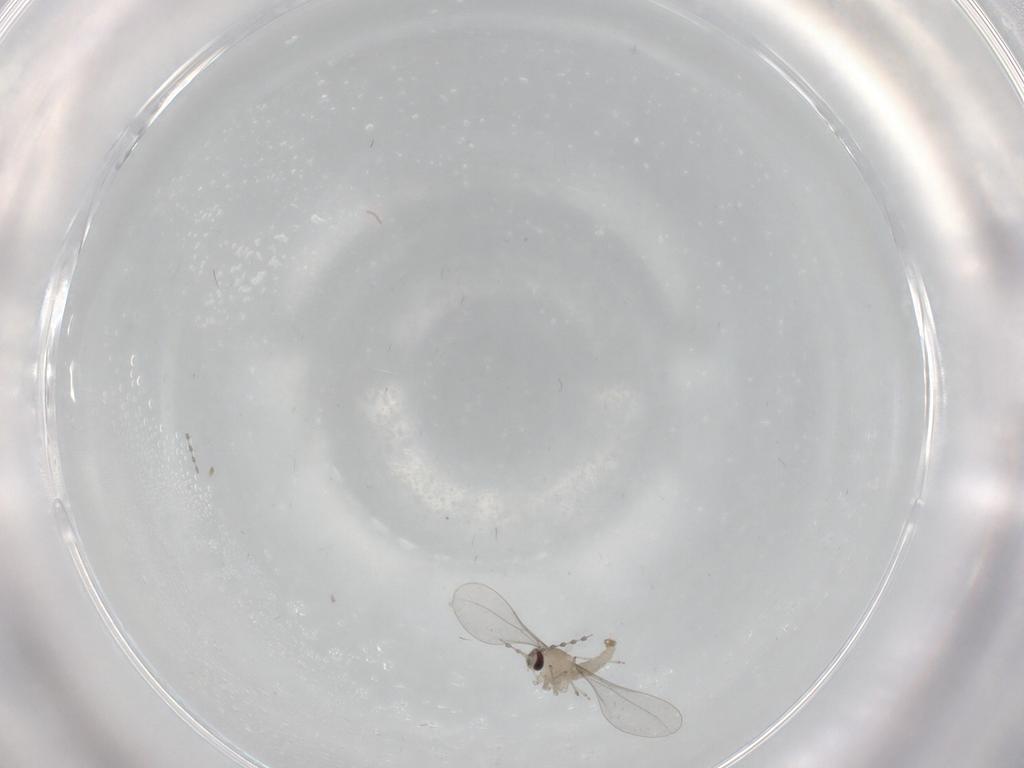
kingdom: Animalia
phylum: Arthropoda
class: Insecta
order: Diptera
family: Cecidomyiidae
